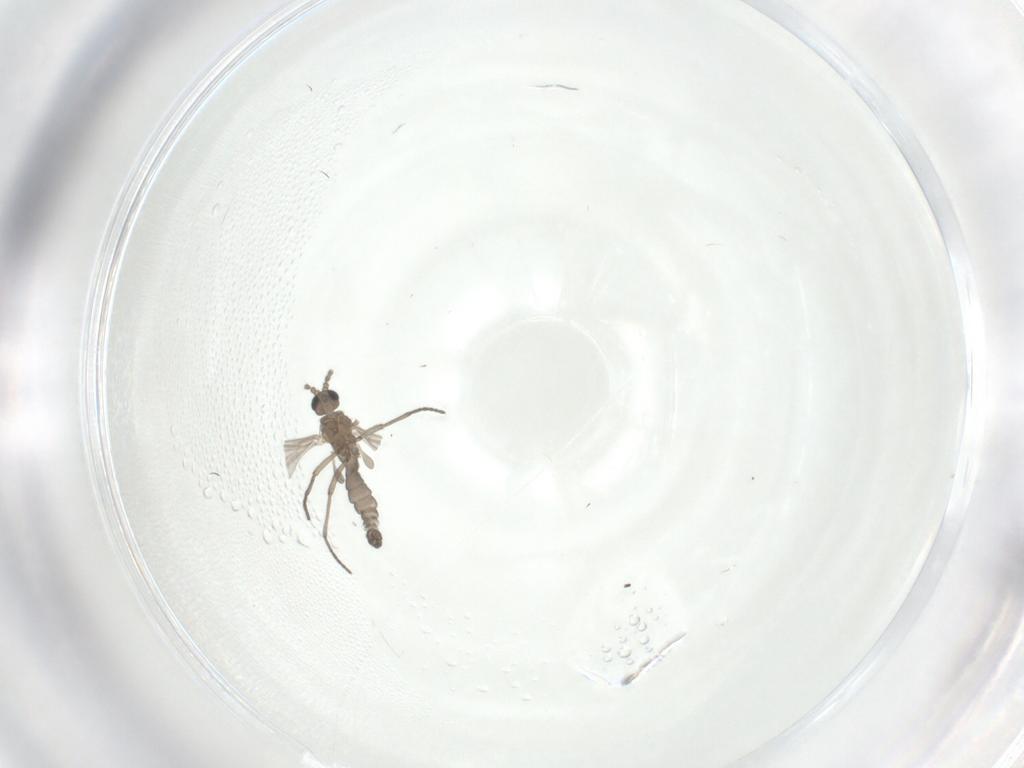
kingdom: Animalia
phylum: Arthropoda
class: Insecta
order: Diptera
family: Sciaridae
